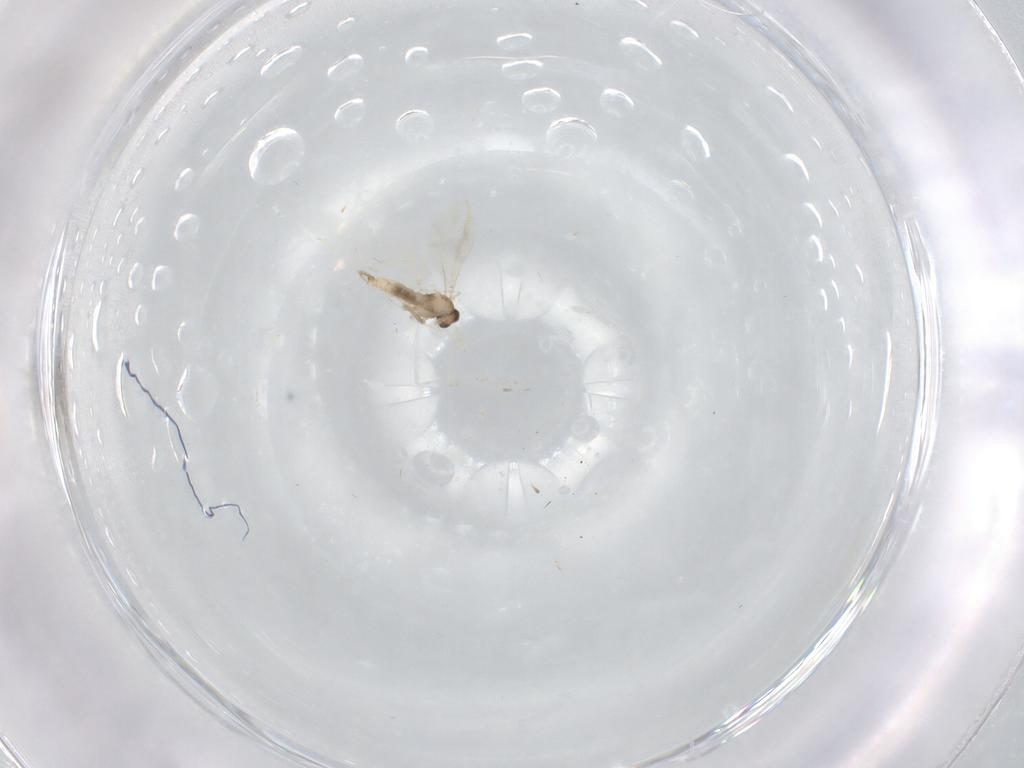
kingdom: Animalia
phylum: Arthropoda
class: Insecta
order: Diptera
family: Cecidomyiidae
